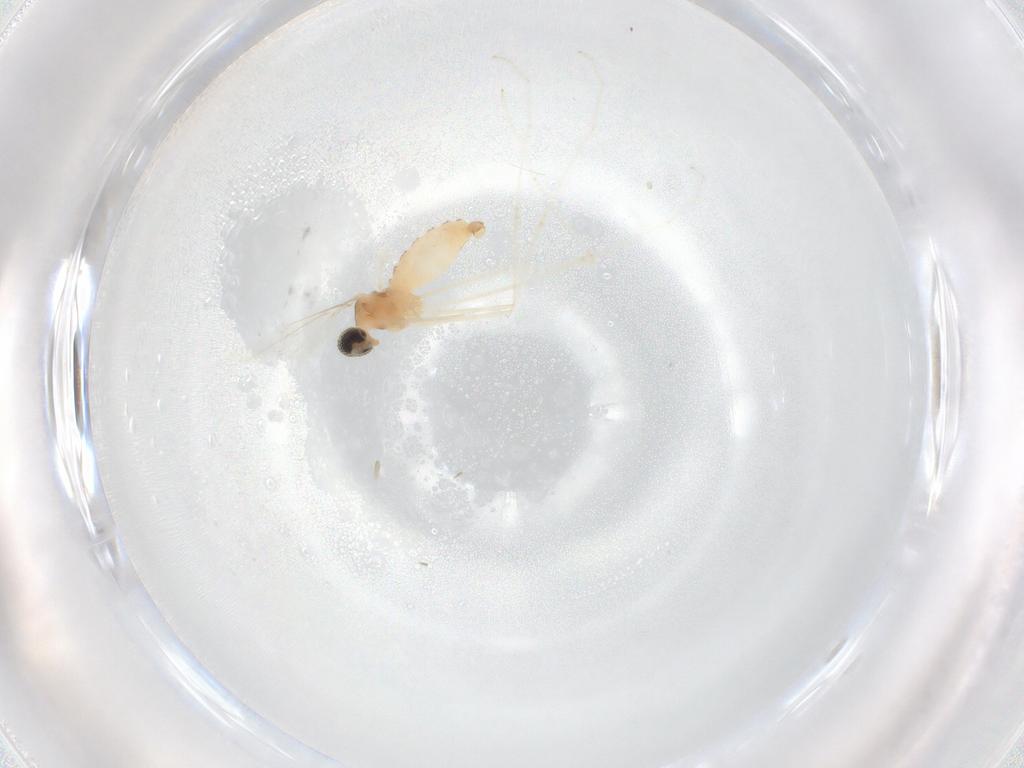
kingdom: Animalia
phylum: Arthropoda
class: Insecta
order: Diptera
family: Cecidomyiidae
